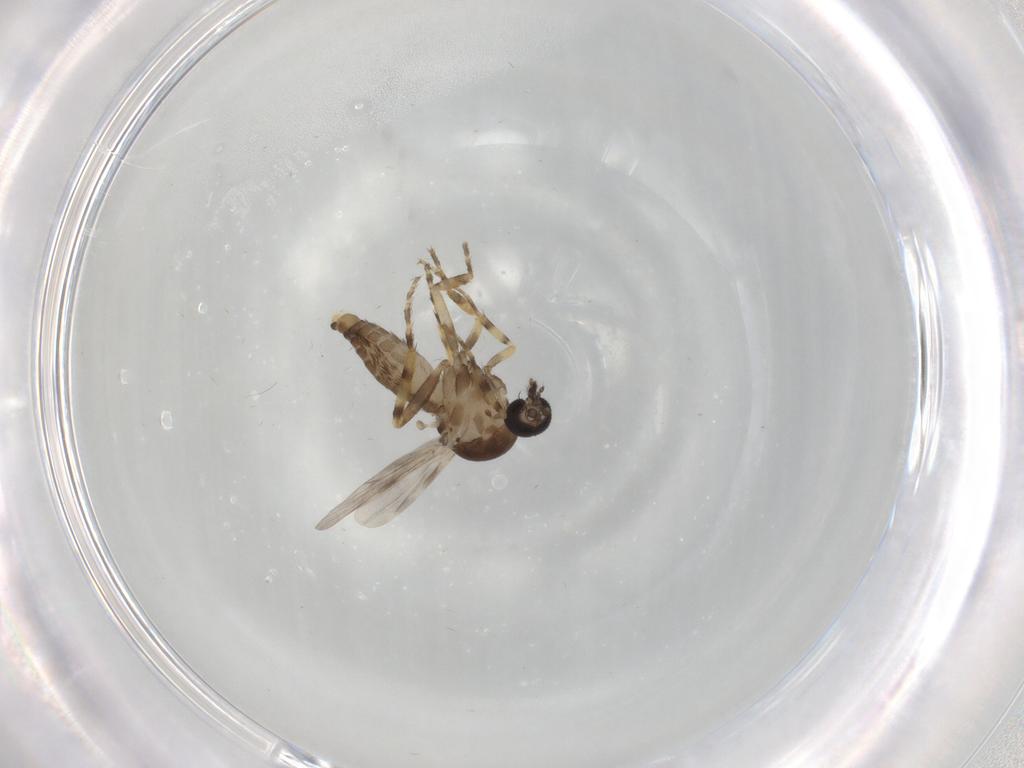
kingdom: Animalia
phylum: Arthropoda
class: Insecta
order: Diptera
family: Ceratopogonidae
